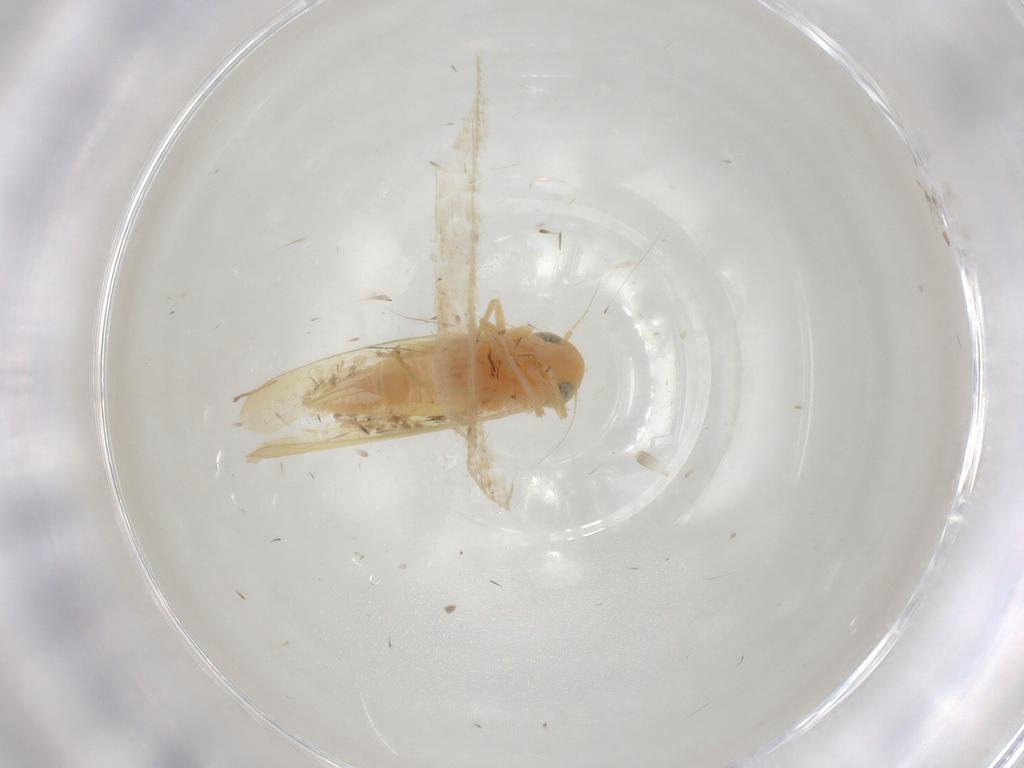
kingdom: Animalia
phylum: Arthropoda
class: Insecta
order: Hemiptera
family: Cicadellidae
